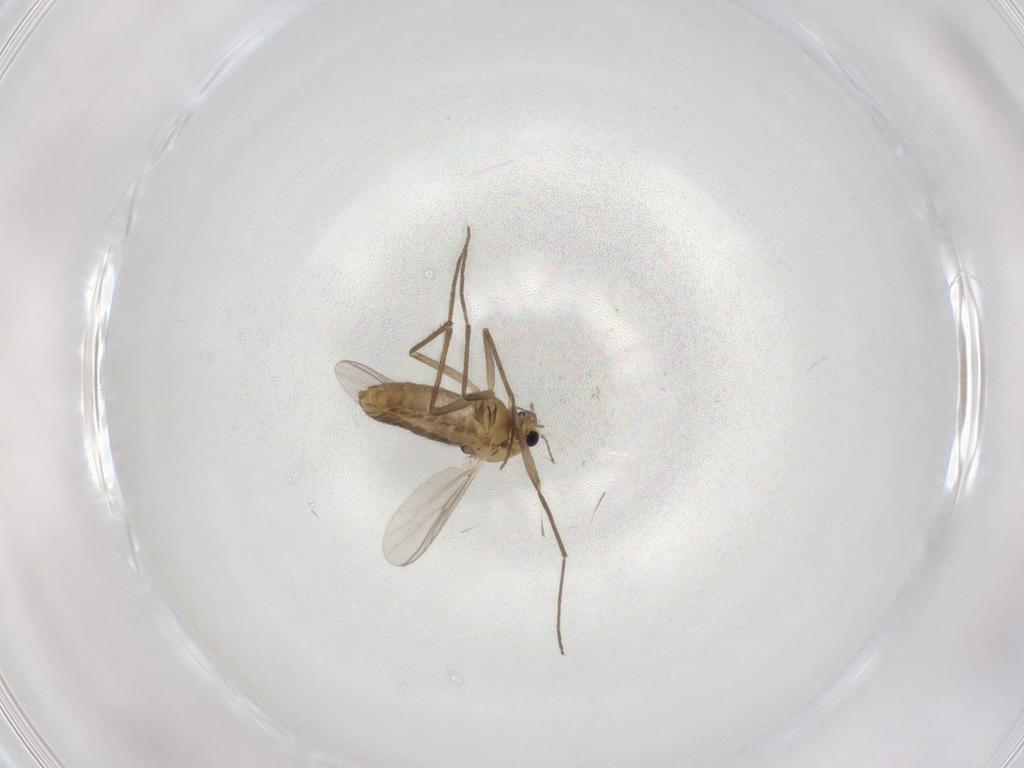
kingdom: Animalia
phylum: Arthropoda
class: Insecta
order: Diptera
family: Chironomidae
